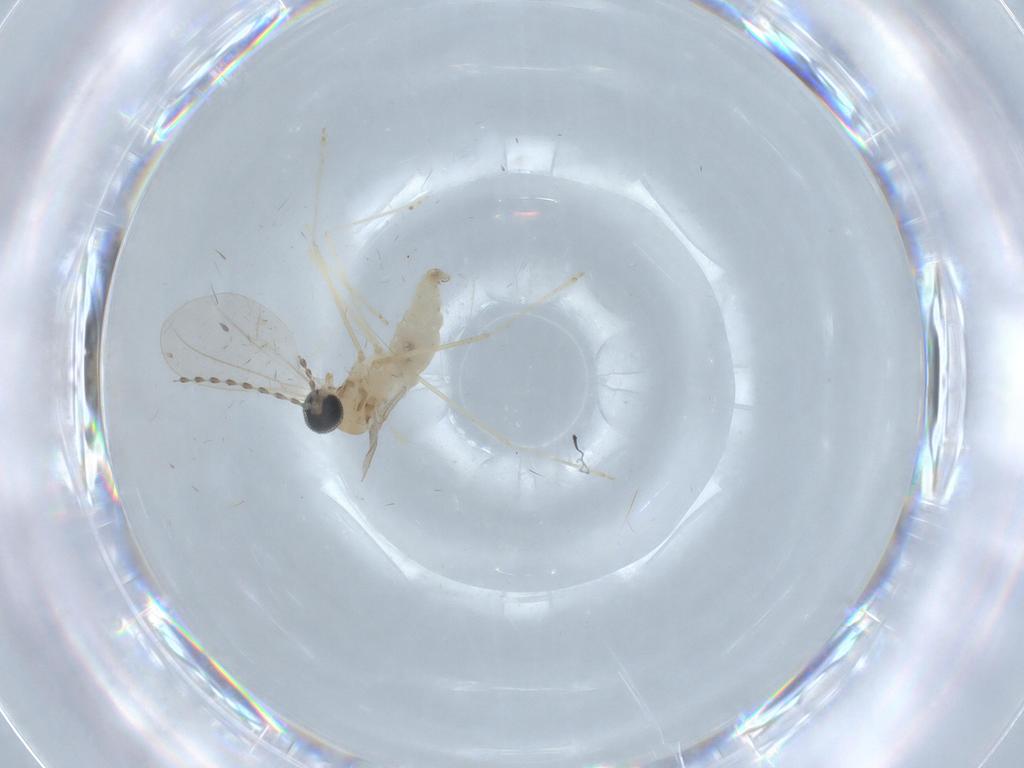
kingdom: Animalia
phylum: Arthropoda
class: Insecta
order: Diptera
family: Cecidomyiidae
